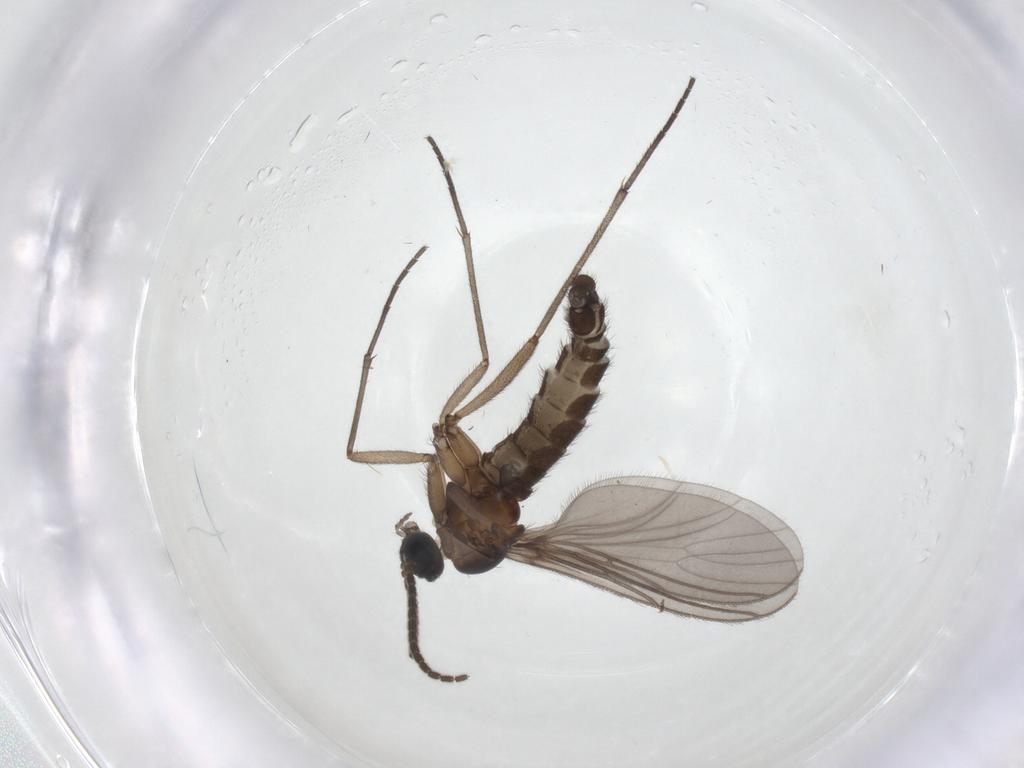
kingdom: Animalia
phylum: Arthropoda
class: Insecta
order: Diptera
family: Sciaridae
